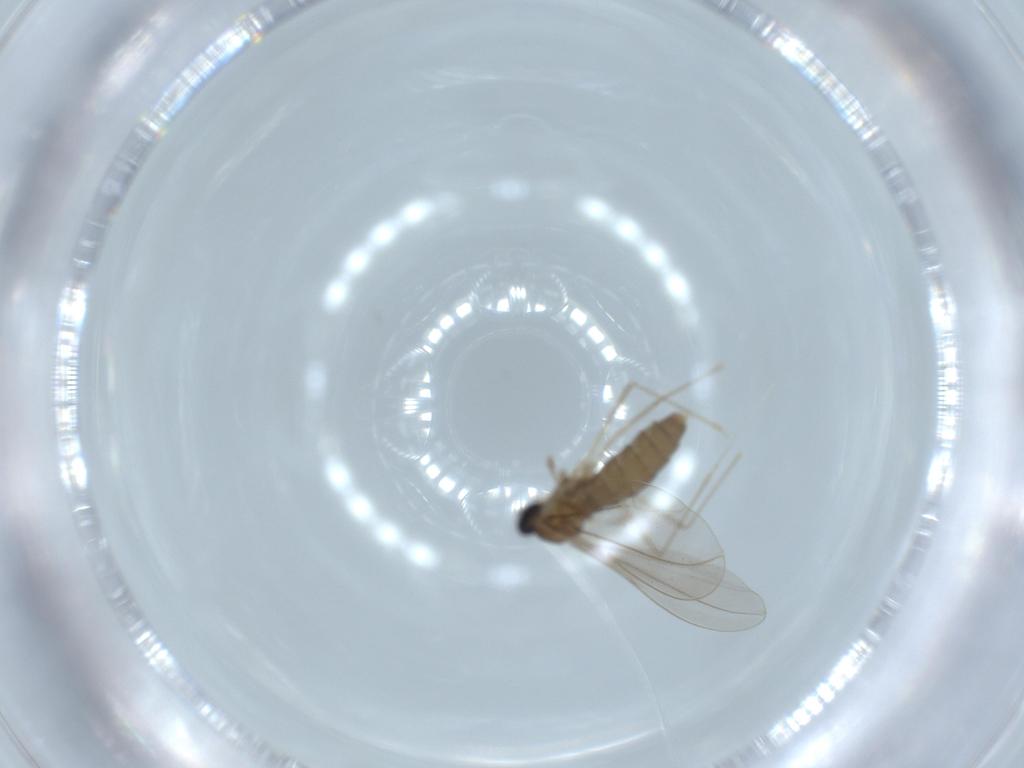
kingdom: Animalia
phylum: Arthropoda
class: Insecta
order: Diptera
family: Cecidomyiidae
